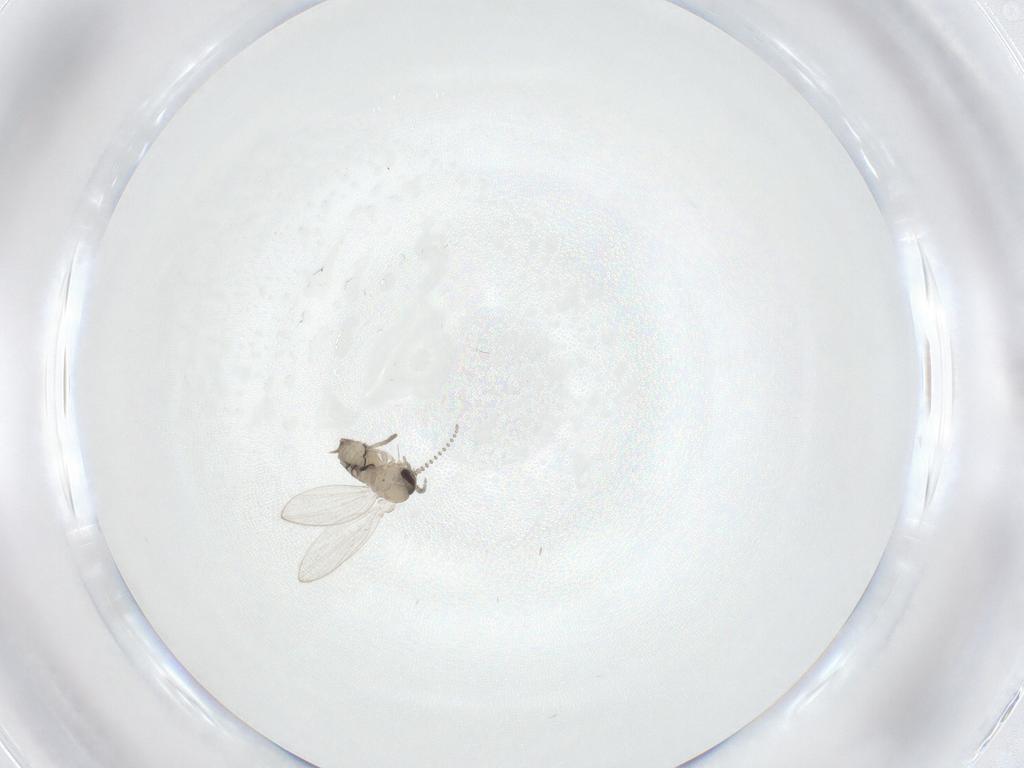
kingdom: Animalia
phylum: Arthropoda
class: Insecta
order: Diptera
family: Psychodidae
